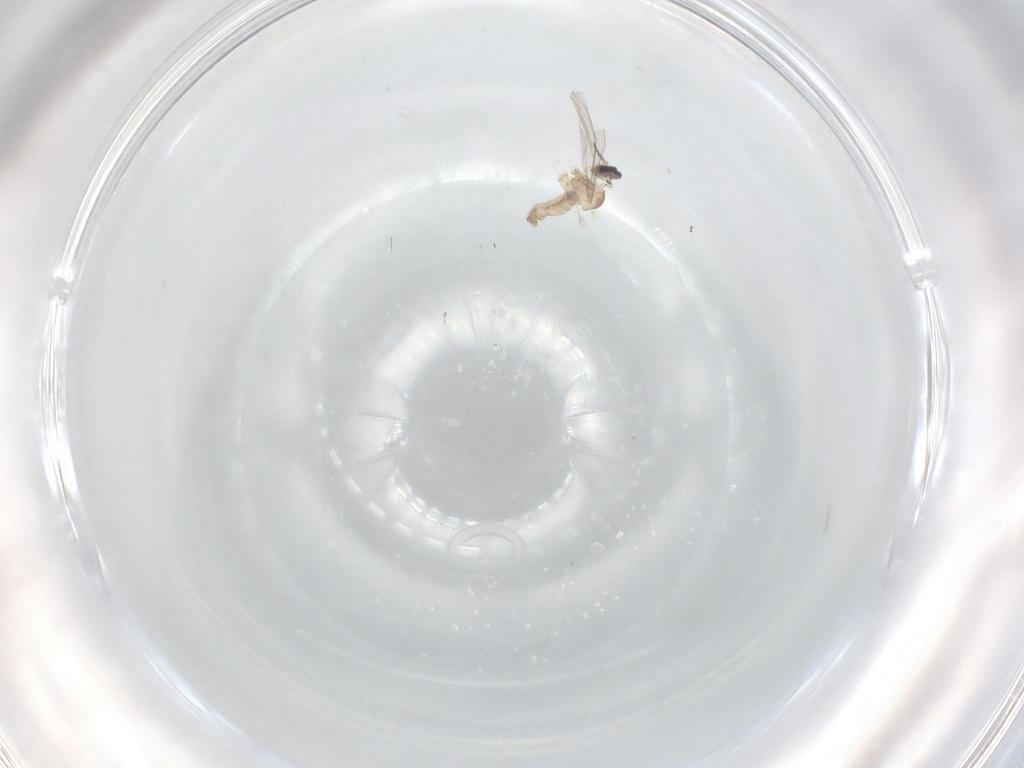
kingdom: Animalia
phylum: Arthropoda
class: Insecta
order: Diptera
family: Cecidomyiidae
